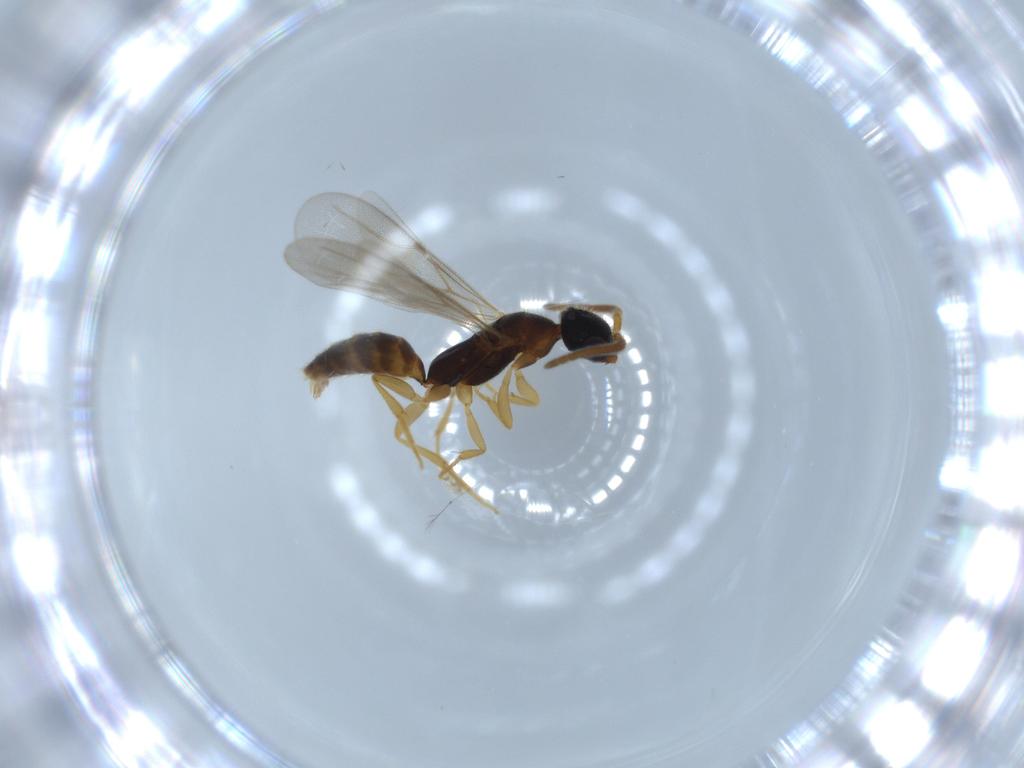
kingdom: Animalia
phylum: Arthropoda
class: Insecta
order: Hymenoptera
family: Bethylidae
